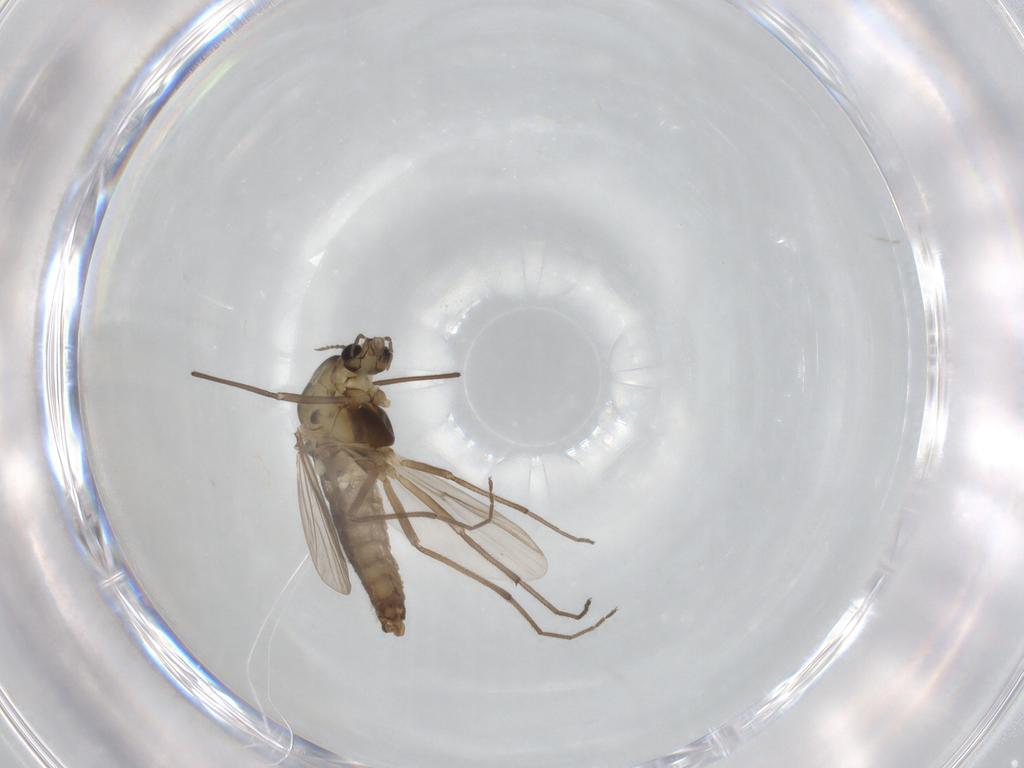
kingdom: Animalia
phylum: Arthropoda
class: Insecta
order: Diptera
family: Chironomidae
